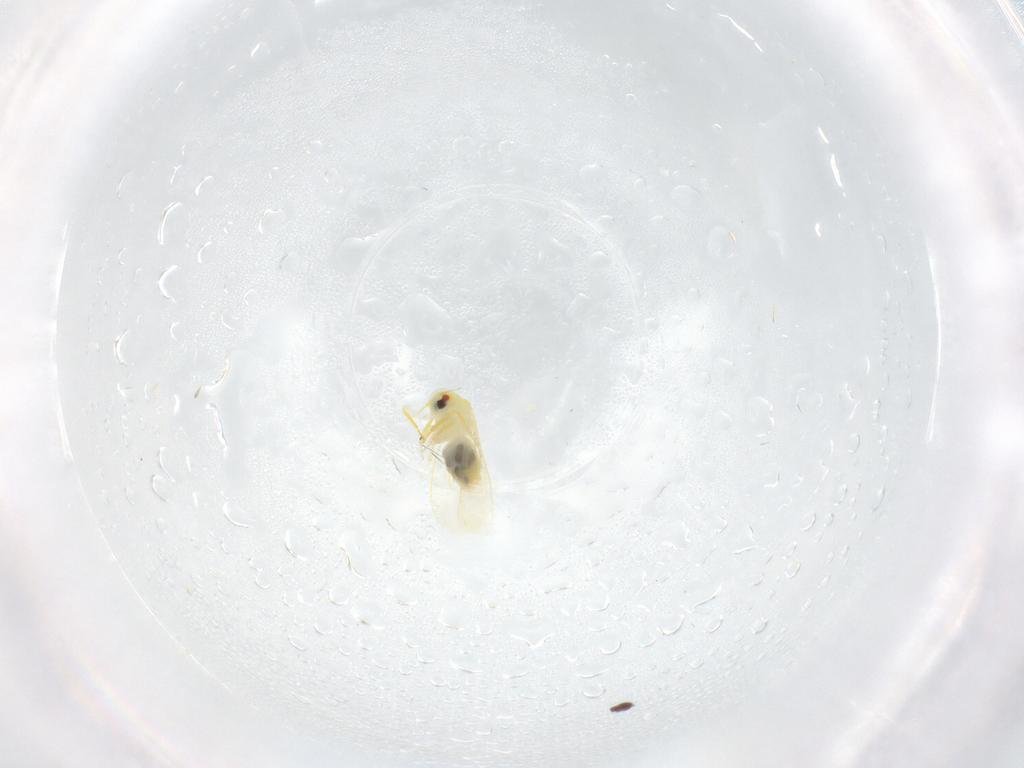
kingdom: Animalia
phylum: Arthropoda
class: Insecta
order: Hemiptera
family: Aleyrodidae
